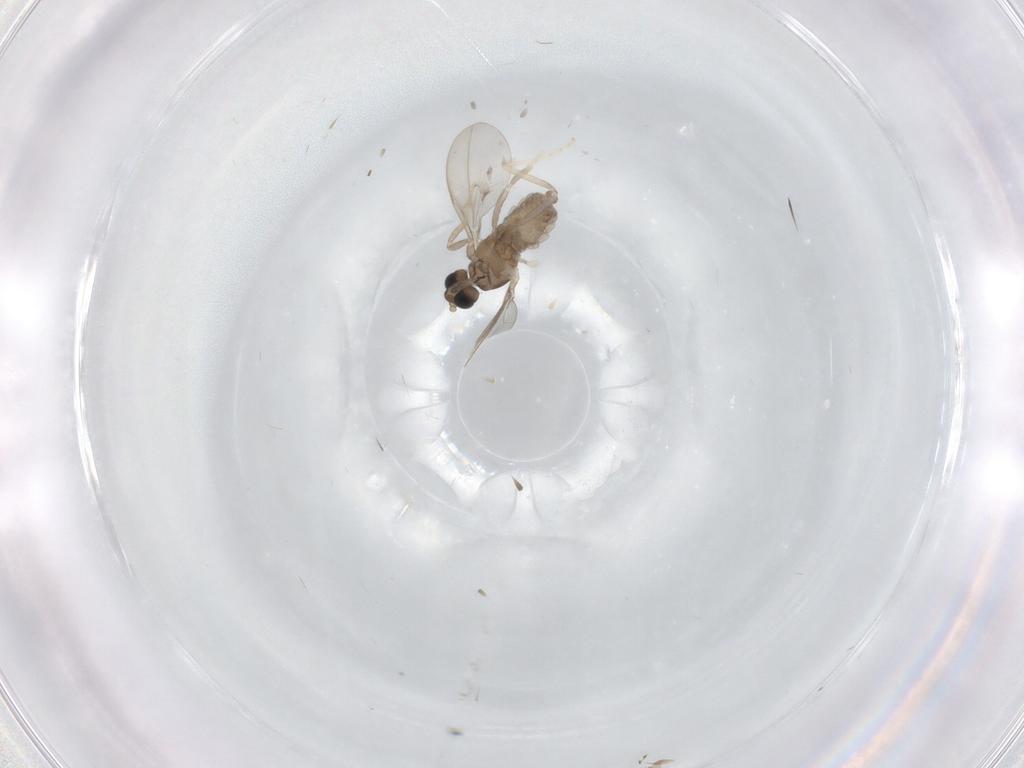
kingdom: Animalia
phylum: Arthropoda
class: Insecta
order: Diptera
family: Cecidomyiidae
